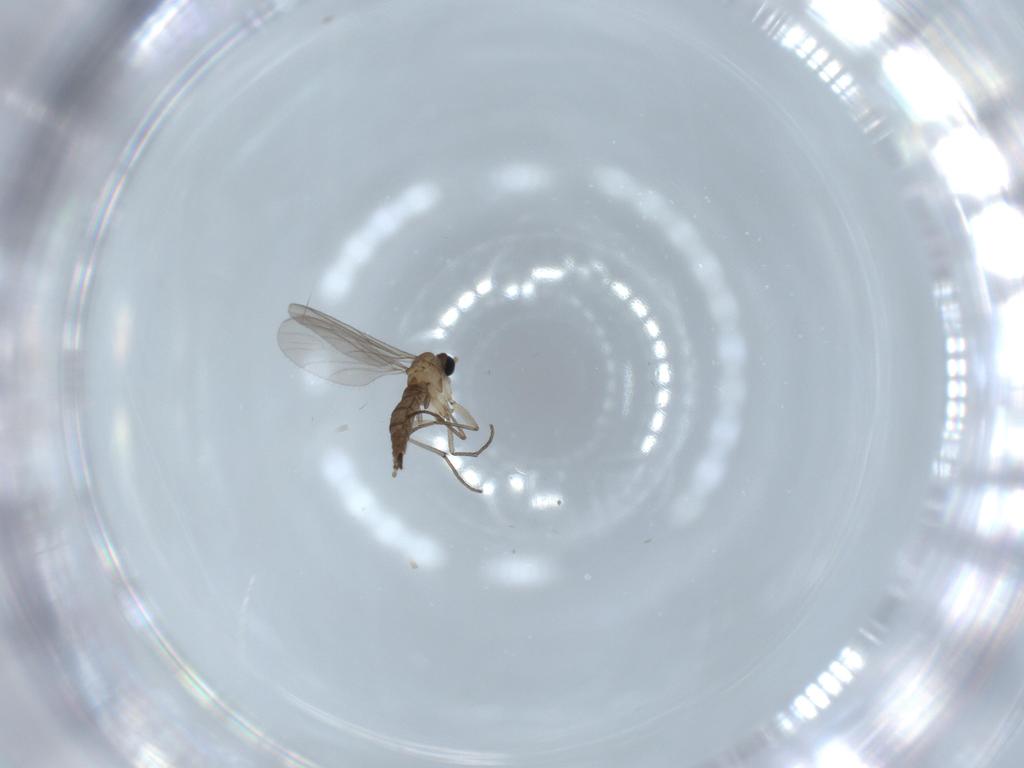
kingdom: Animalia
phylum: Arthropoda
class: Insecta
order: Diptera
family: Sciaridae
